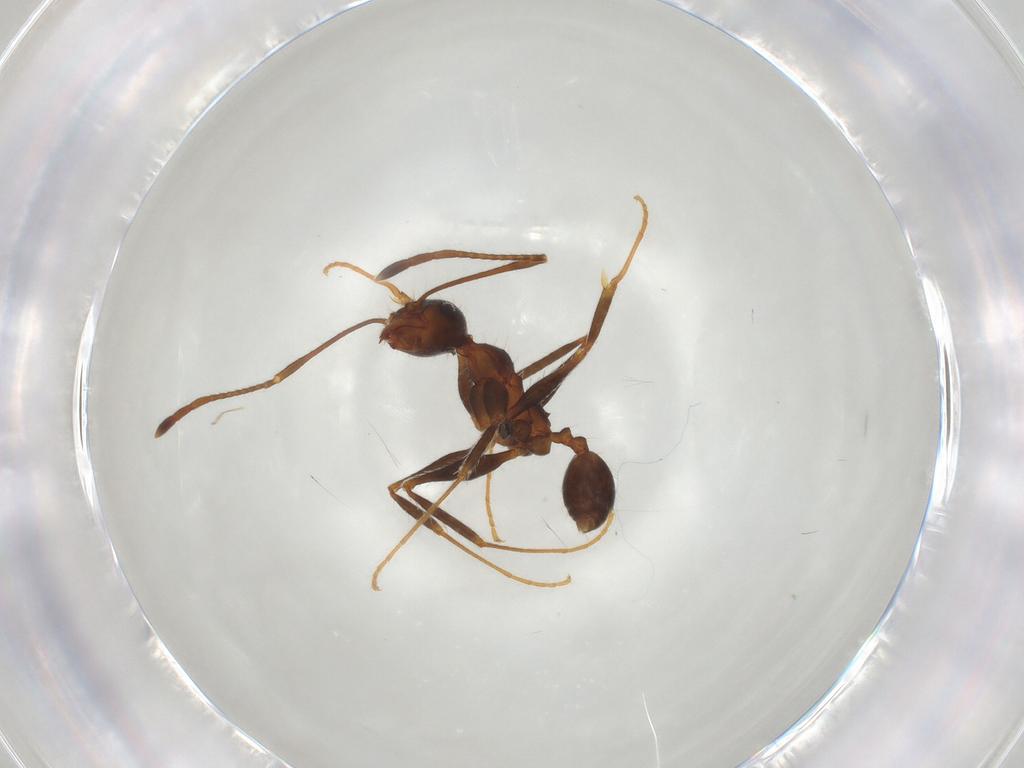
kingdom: Animalia
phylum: Arthropoda
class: Insecta
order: Hymenoptera
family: Formicidae
